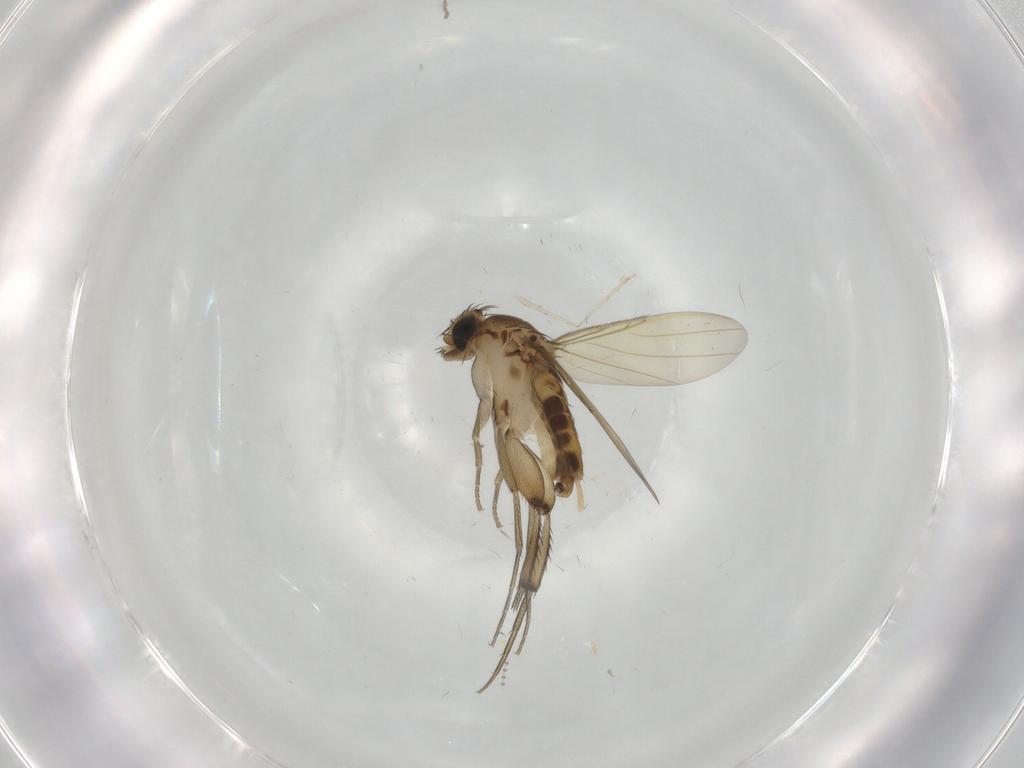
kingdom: Animalia
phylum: Arthropoda
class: Insecta
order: Diptera
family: Phoridae
